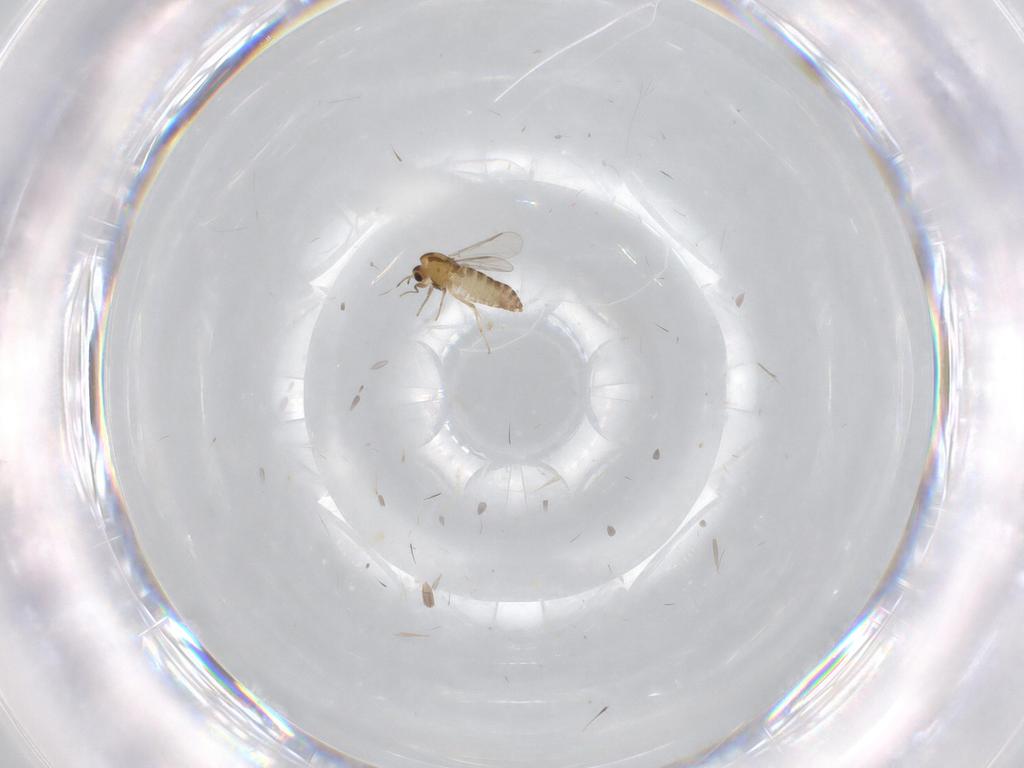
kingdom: Animalia
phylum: Arthropoda
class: Insecta
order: Diptera
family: Chironomidae
